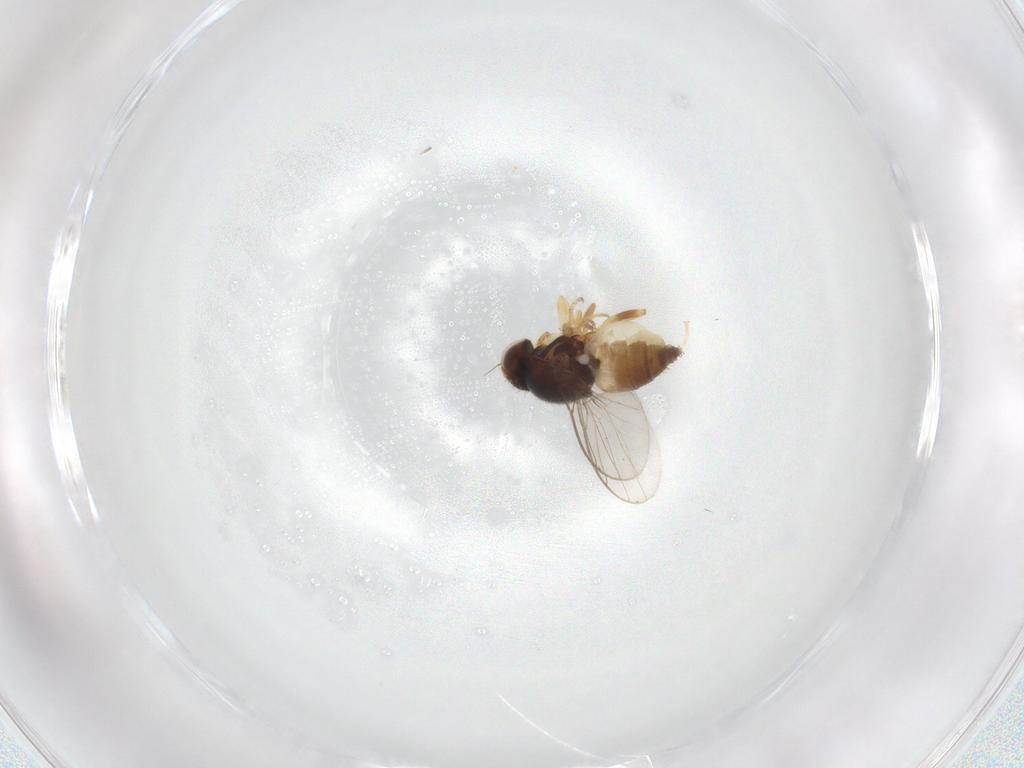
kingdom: Animalia
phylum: Arthropoda
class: Insecta
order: Diptera
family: Chloropidae
